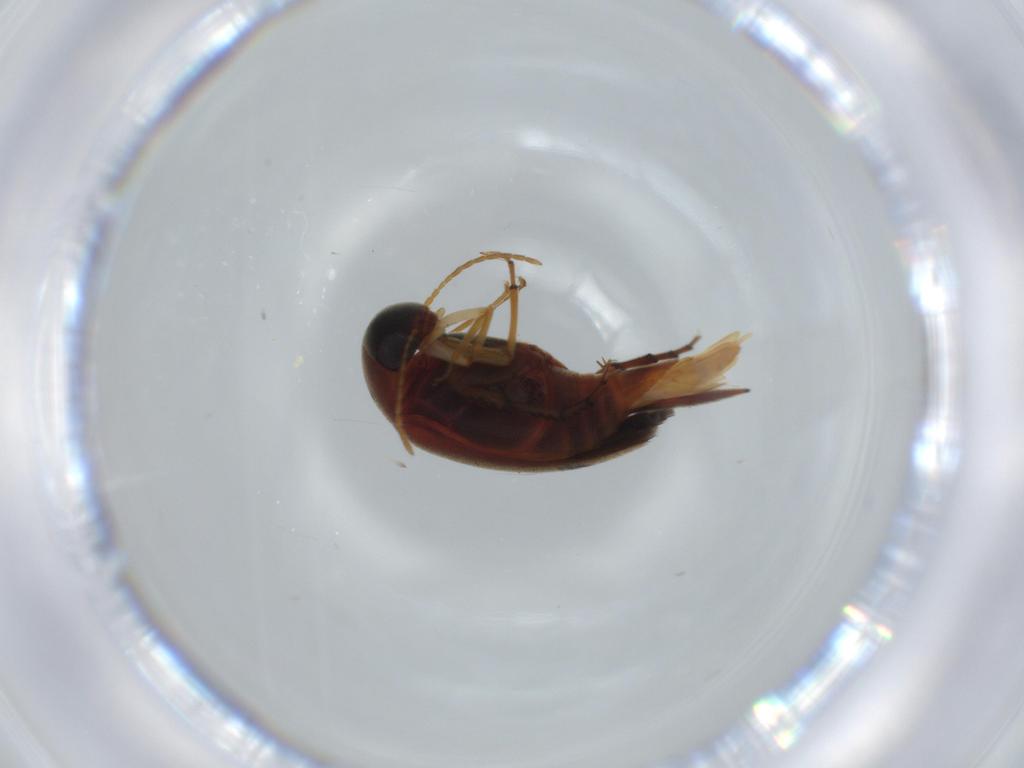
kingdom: Animalia
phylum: Arthropoda
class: Insecta
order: Coleoptera
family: Mordellidae
